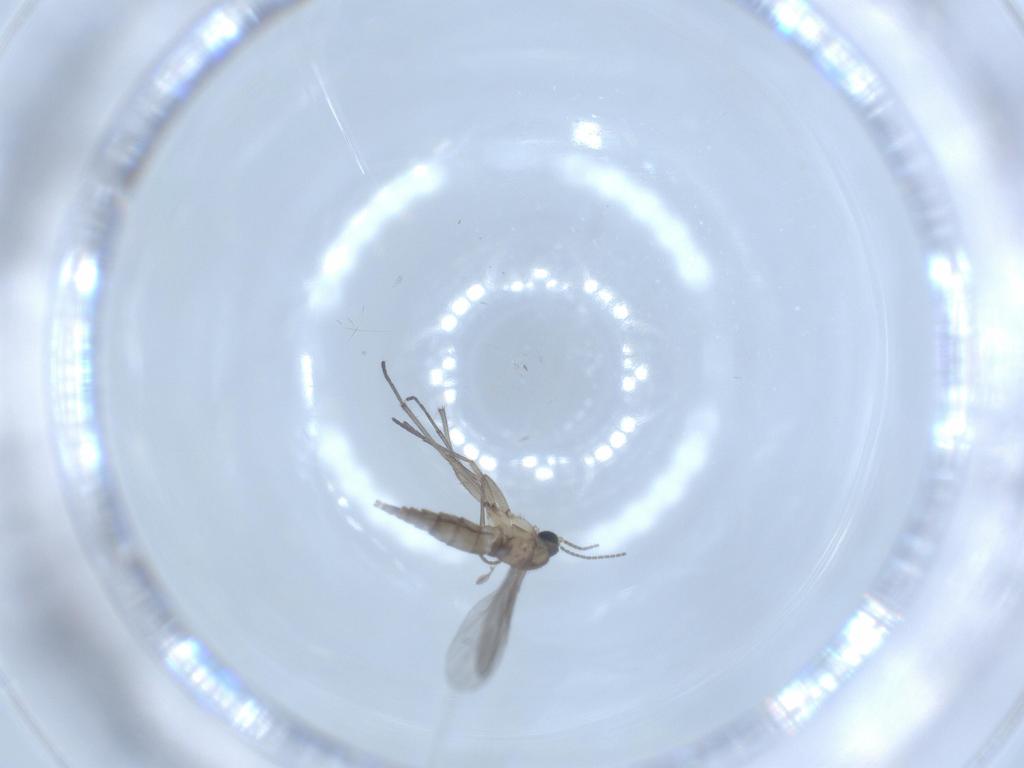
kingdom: Animalia
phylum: Arthropoda
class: Insecta
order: Diptera
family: Sciaridae
